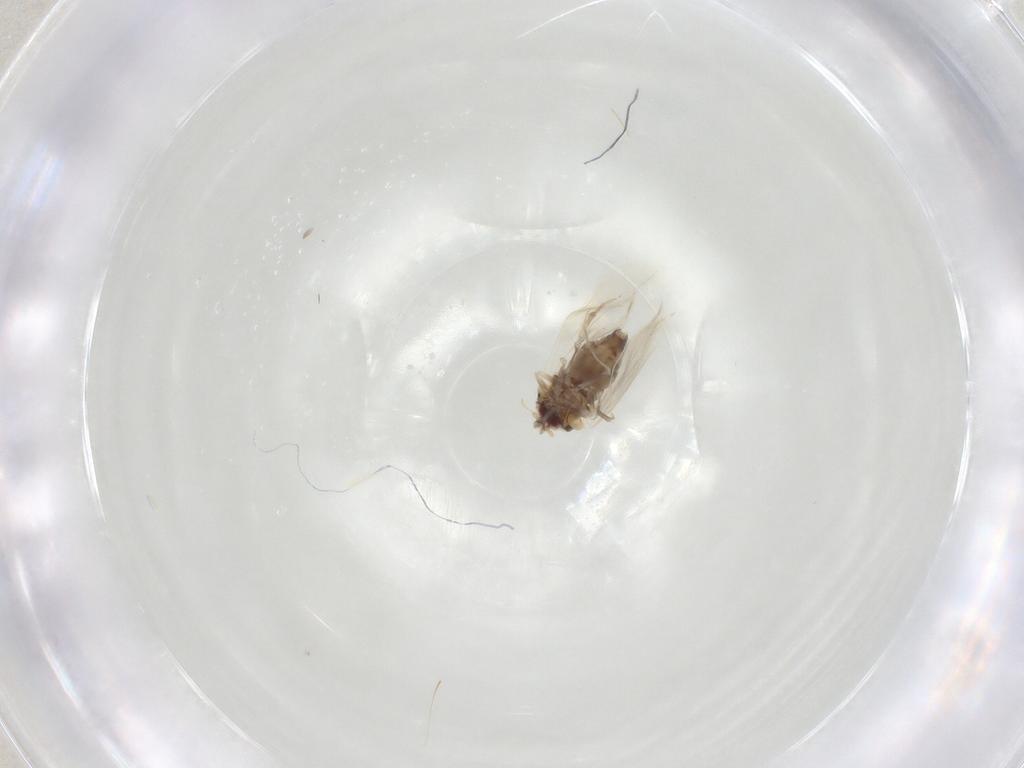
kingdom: Animalia
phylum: Arthropoda
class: Insecta
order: Hemiptera
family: Aleyrodidae
